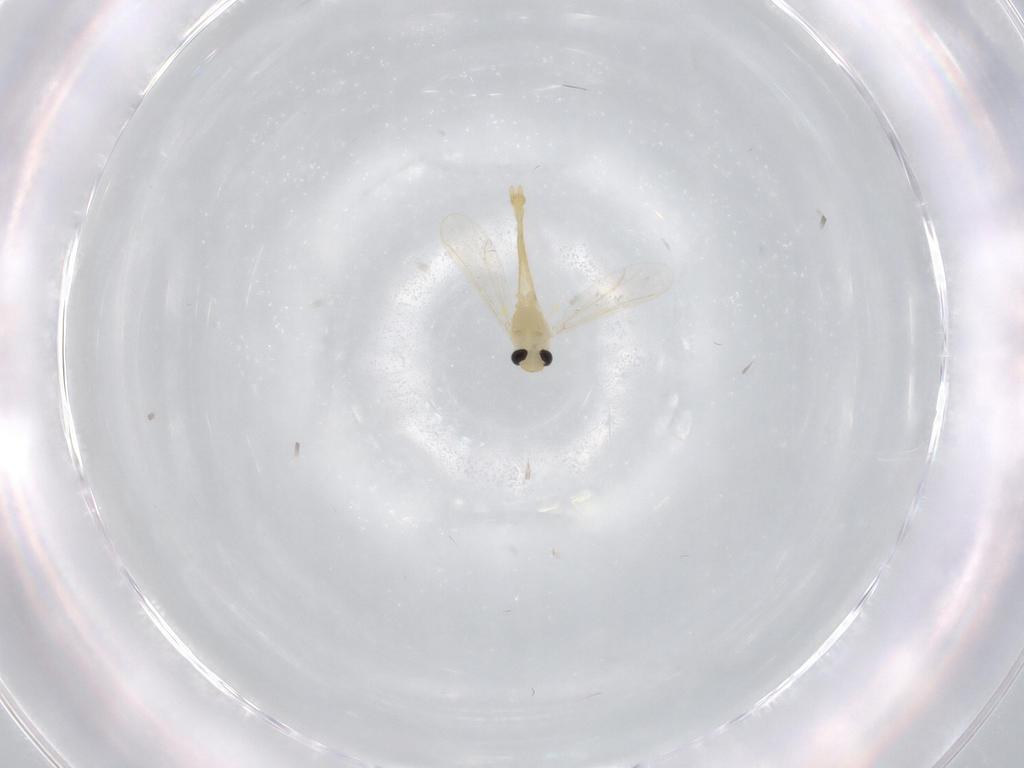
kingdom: Animalia
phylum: Arthropoda
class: Insecta
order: Diptera
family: Chironomidae
